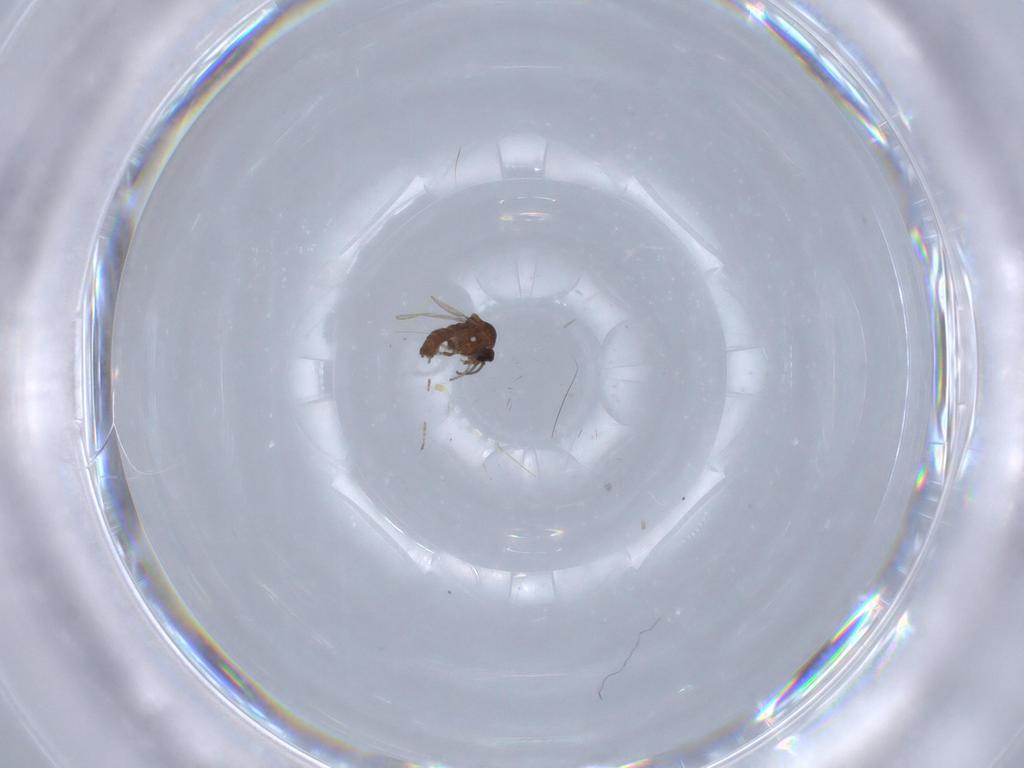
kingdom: Animalia
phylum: Arthropoda
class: Insecta
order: Diptera
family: Ceratopogonidae
